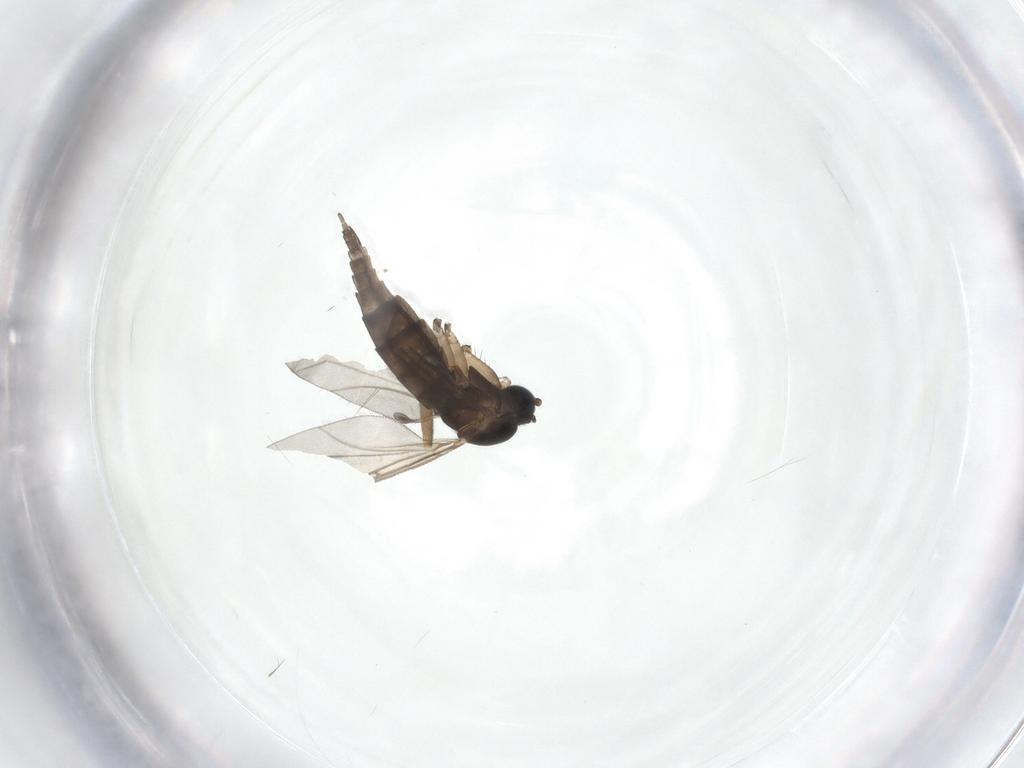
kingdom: Animalia
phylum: Arthropoda
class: Insecta
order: Diptera
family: Sciaridae
